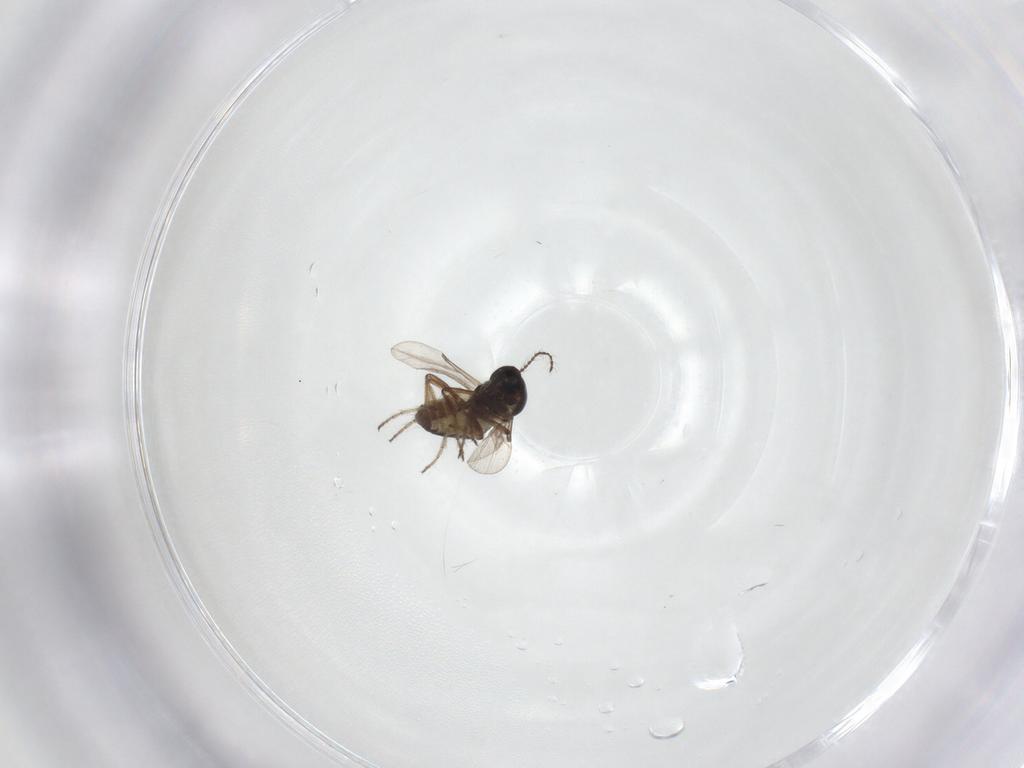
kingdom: Animalia
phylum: Arthropoda
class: Insecta
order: Diptera
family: Ceratopogonidae
